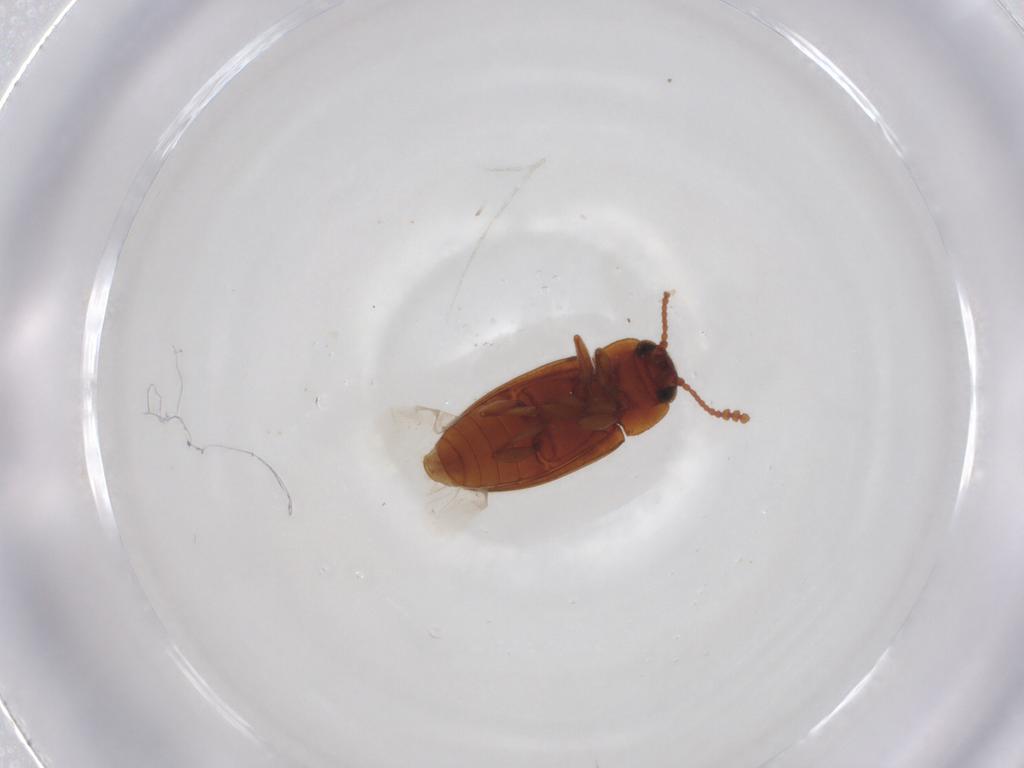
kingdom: Animalia
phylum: Arthropoda
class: Insecta
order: Coleoptera
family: Erotylidae
